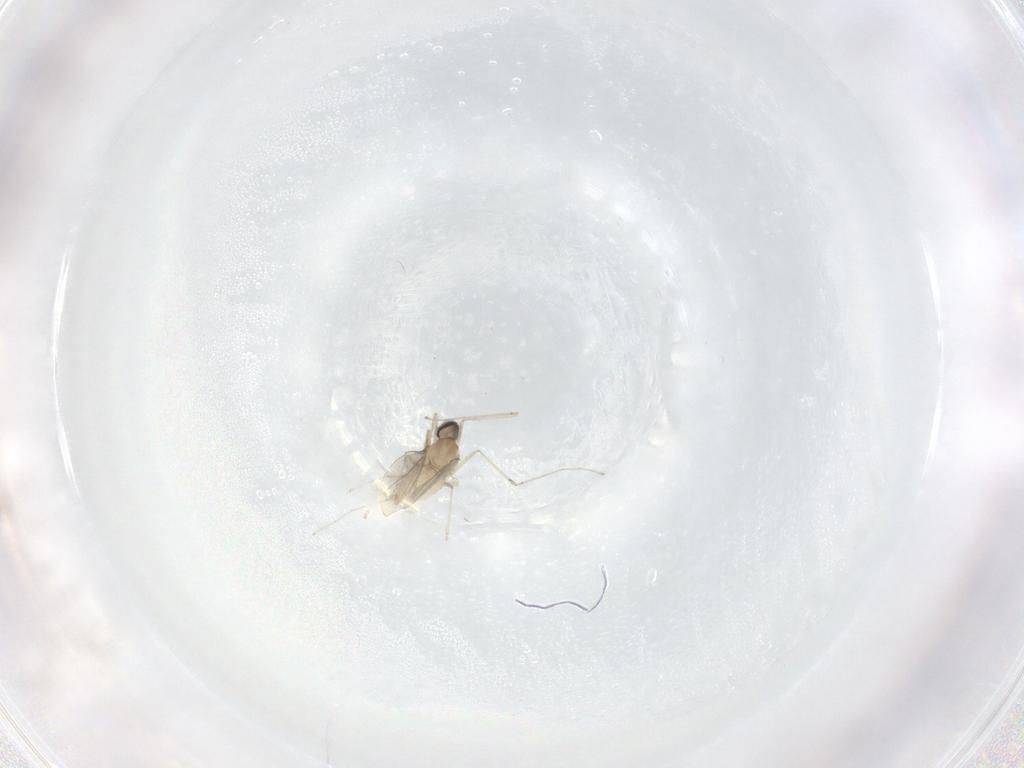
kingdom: Animalia
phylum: Arthropoda
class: Insecta
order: Diptera
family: Cecidomyiidae
